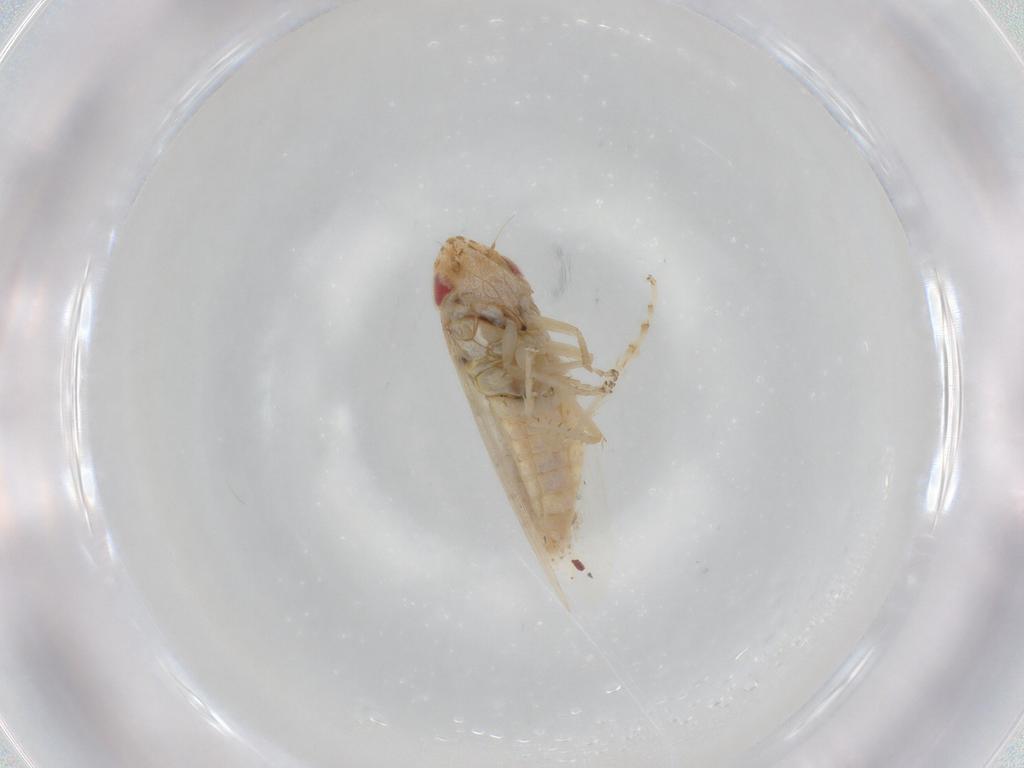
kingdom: Animalia
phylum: Arthropoda
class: Insecta
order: Hemiptera
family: Cicadellidae
